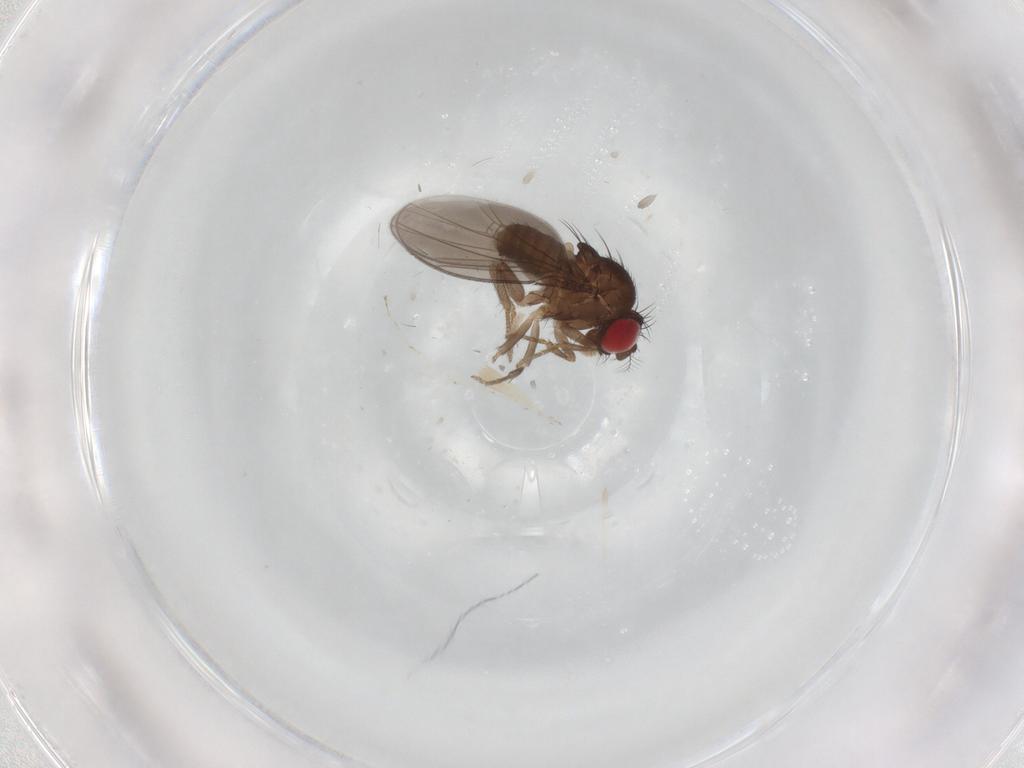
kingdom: Animalia
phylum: Arthropoda
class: Insecta
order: Diptera
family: Drosophilidae
